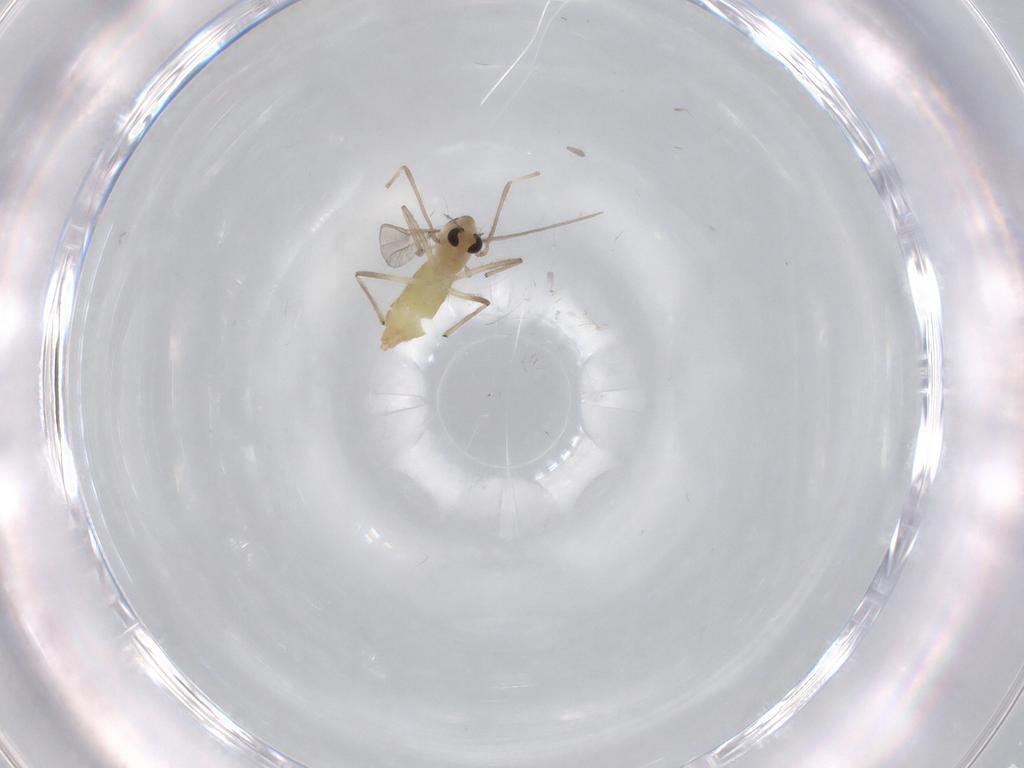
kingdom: Animalia
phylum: Arthropoda
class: Insecta
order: Diptera
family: Chironomidae
